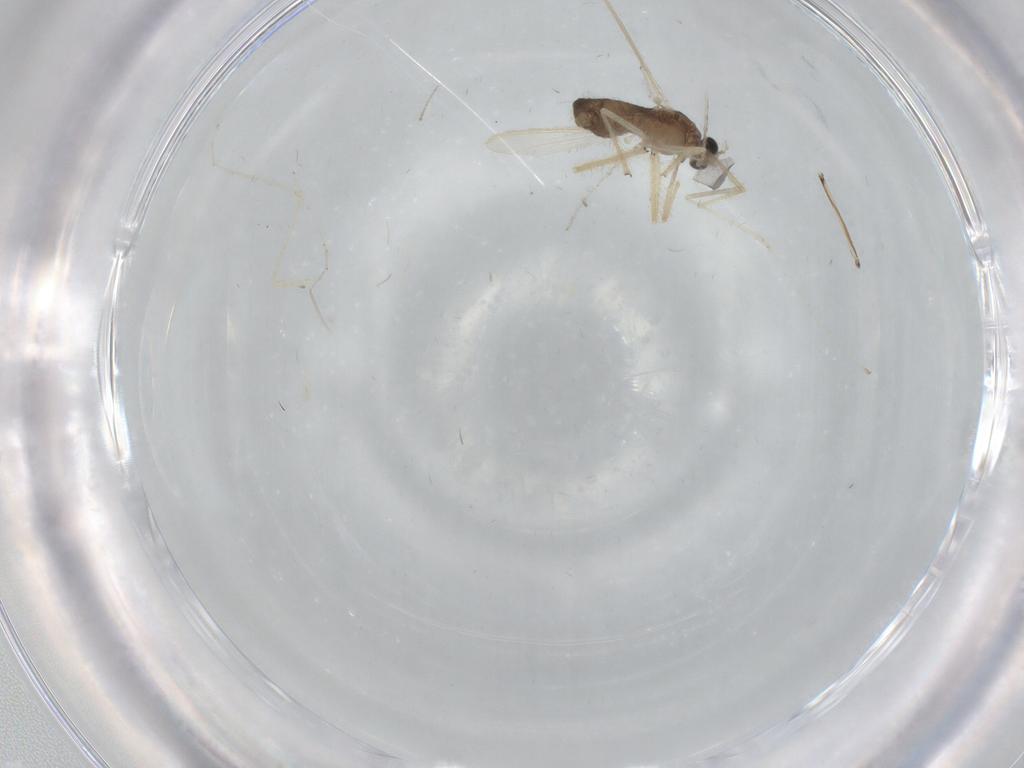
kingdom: Animalia
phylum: Arthropoda
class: Insecta
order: Diptera
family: Chironomidae
